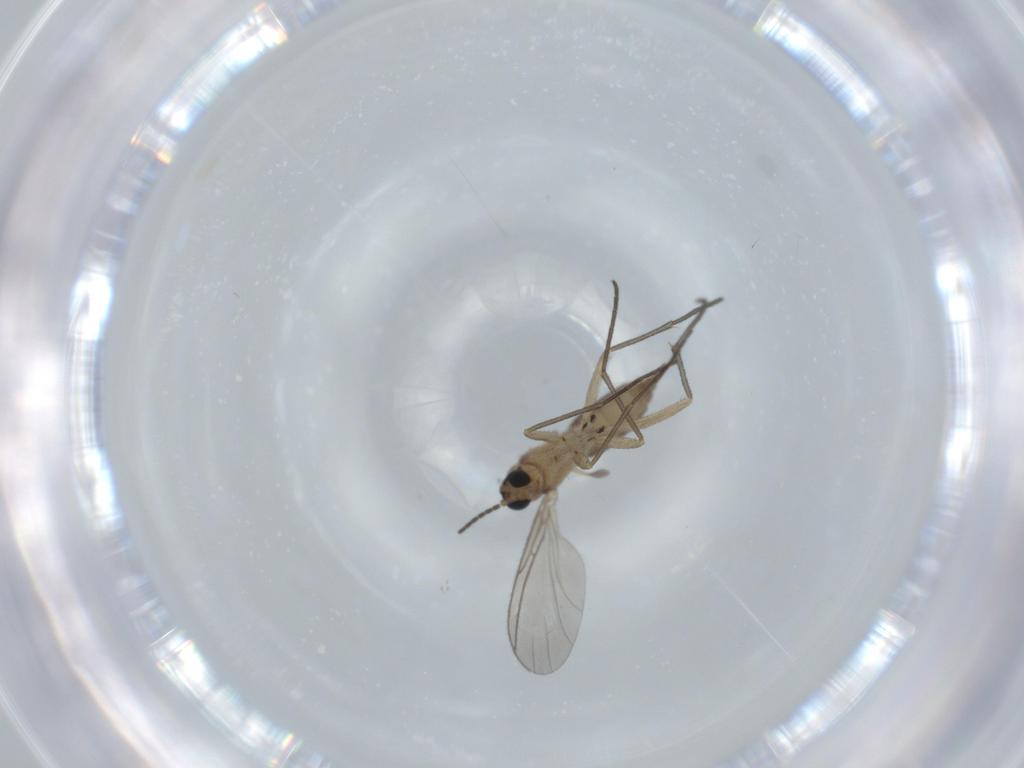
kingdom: Animalia
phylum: Arthropoda
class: Insecta
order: Diptera
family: Sciaridae
